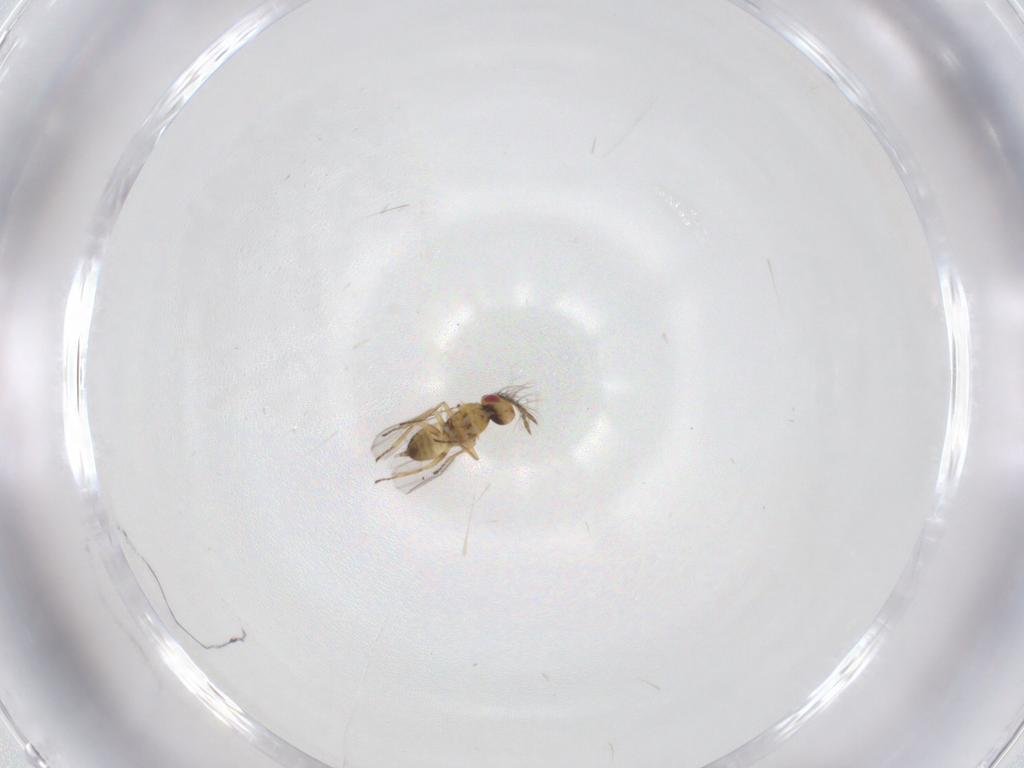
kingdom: Animalia
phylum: Arthropoda
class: Insecta
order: Hymenoptera
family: Eulophidae
